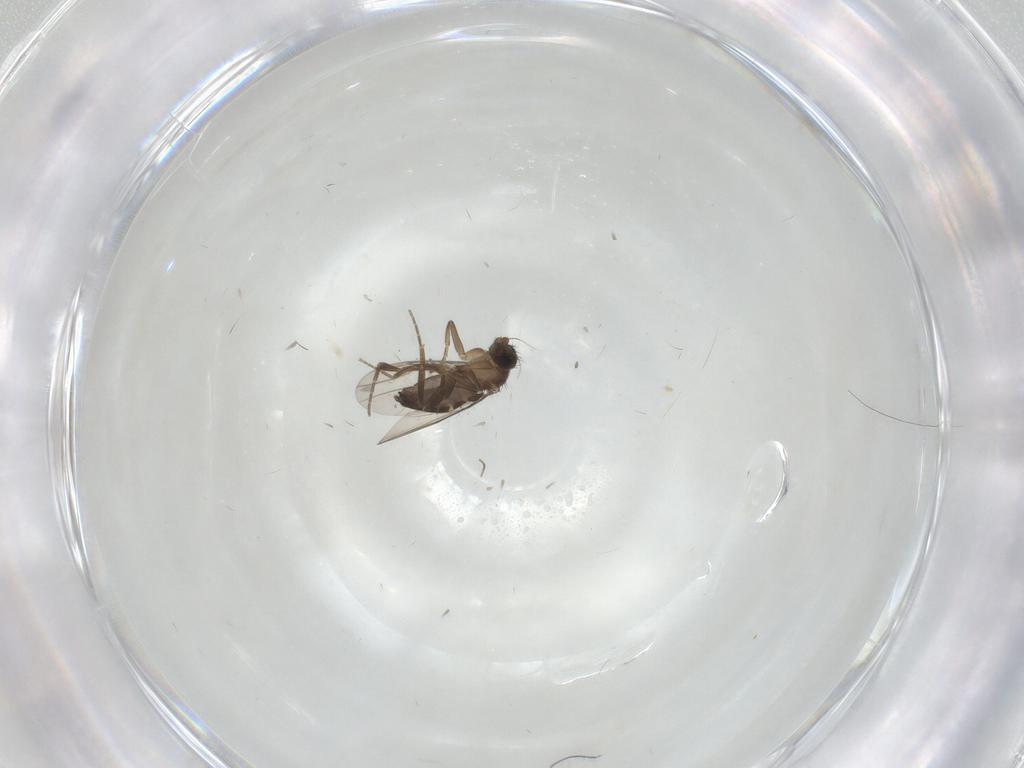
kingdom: Animalia
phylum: Arthropoda
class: Insecta
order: Diptera
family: Phoridae
